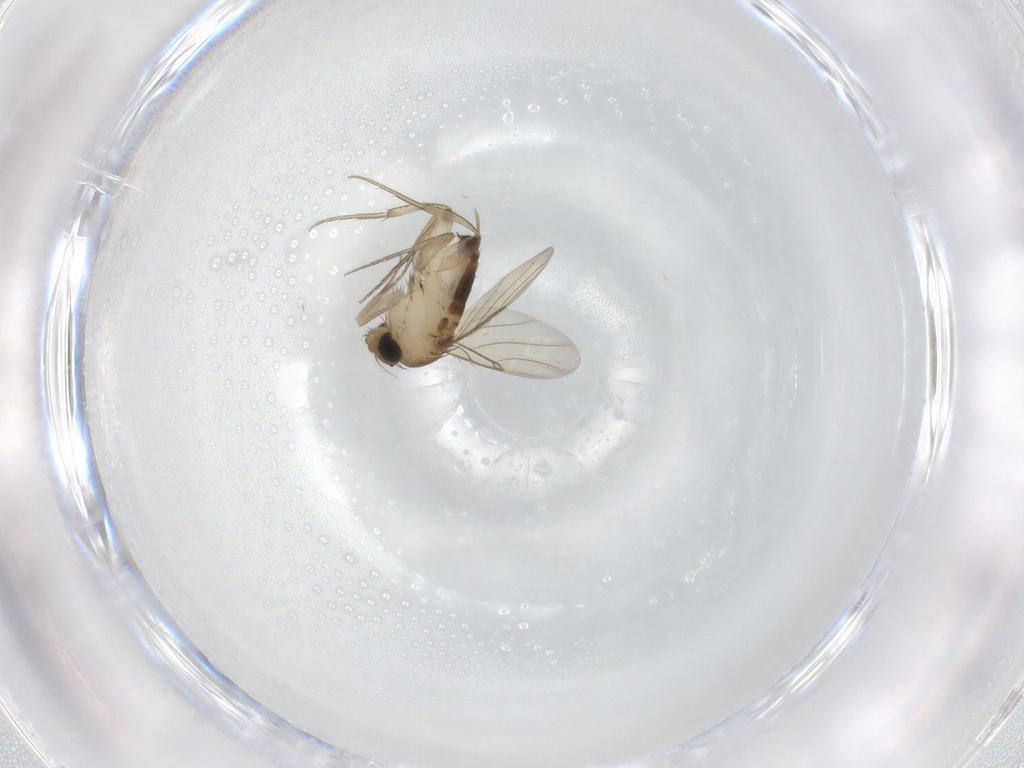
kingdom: Animalia
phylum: Arthropoda
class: Insecta
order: Diptera
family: Phoridae
